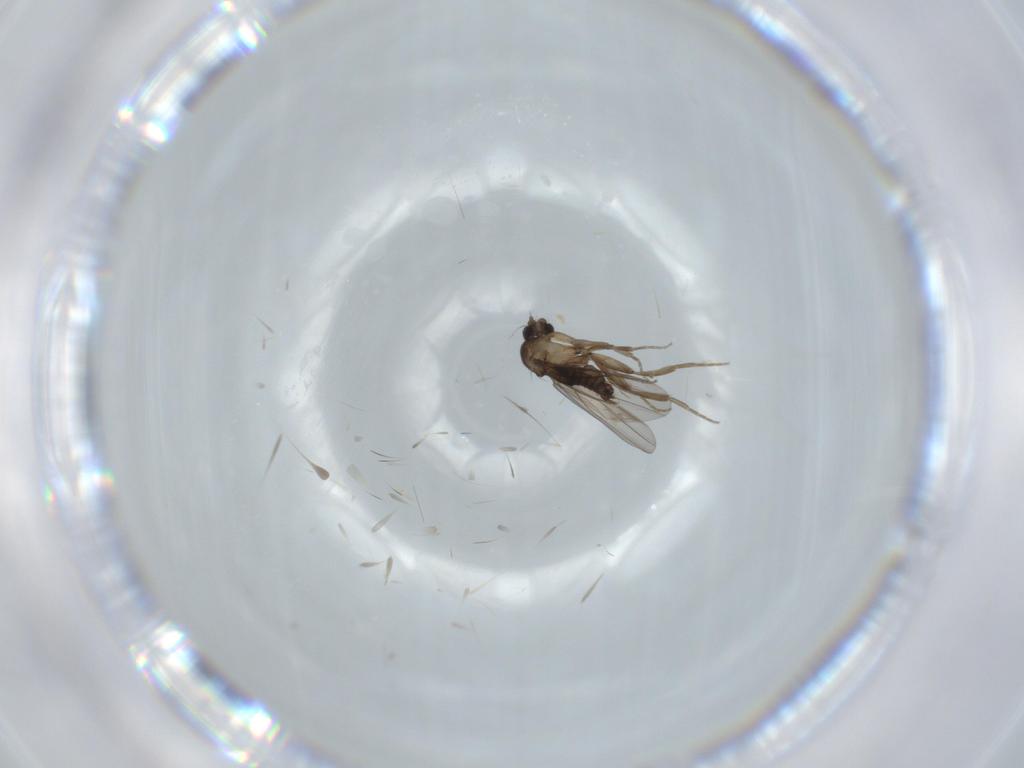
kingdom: Animalia
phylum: Arthropoda
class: Insecta
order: Diptera
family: Phoridae
